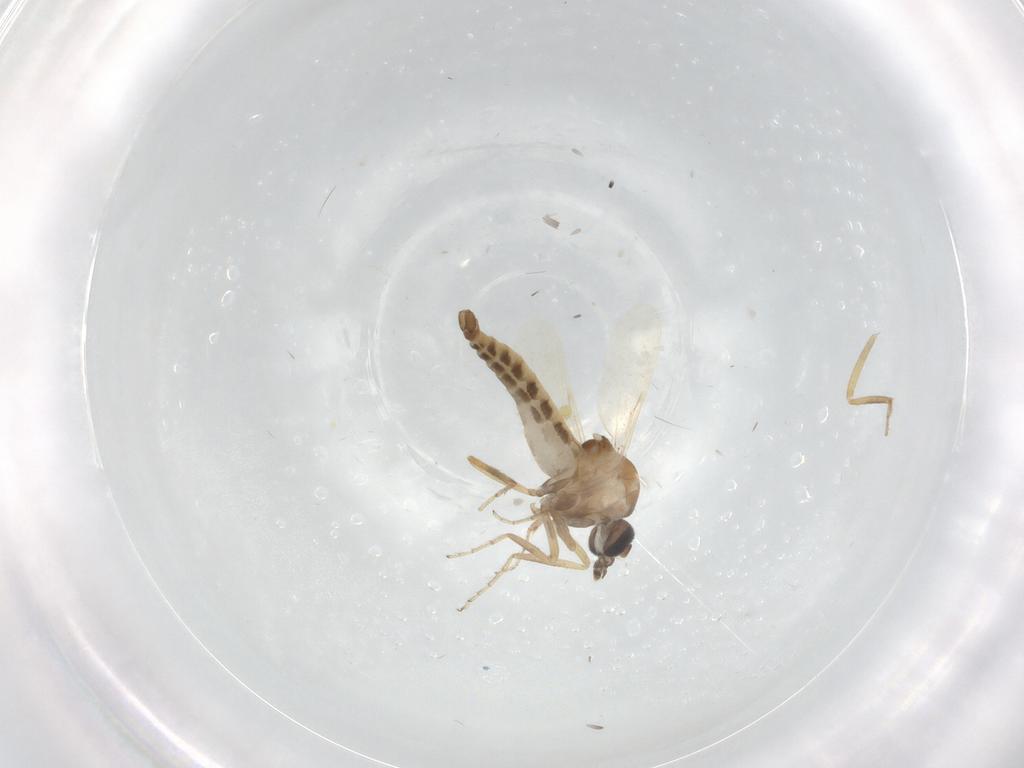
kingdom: Animalia
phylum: Arthropoda
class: Insecta
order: Diptera
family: Ceratopogonidae
